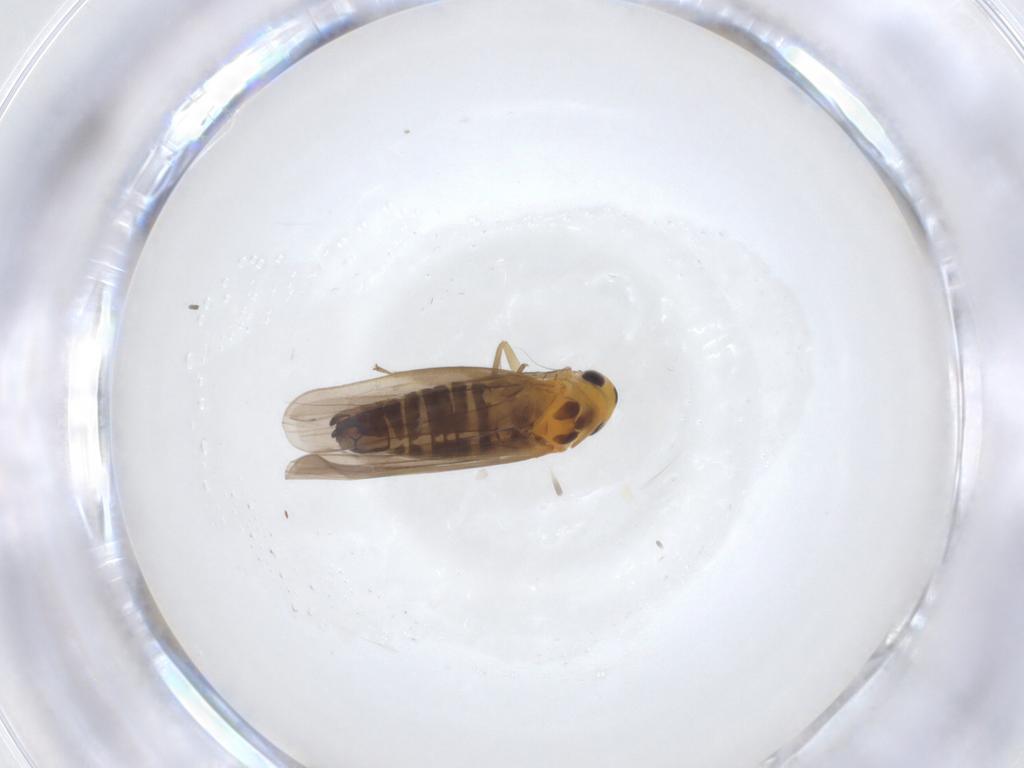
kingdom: Animalia
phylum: Arthropoda
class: Insecta
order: Hemiptera
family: Cicadellidae
